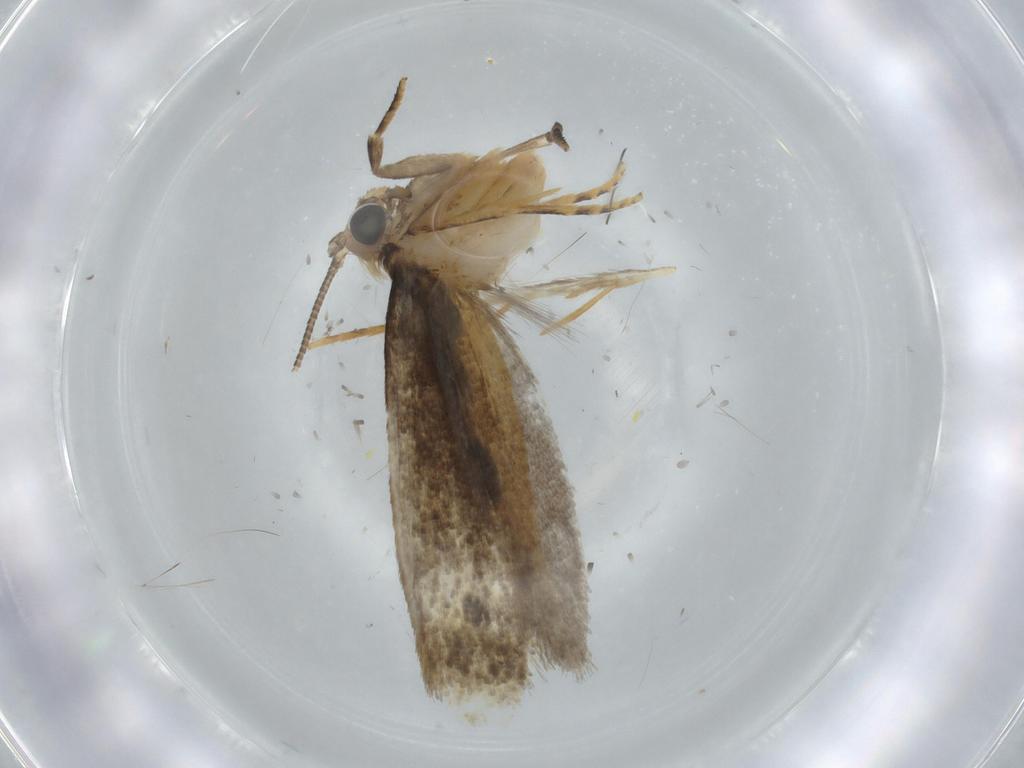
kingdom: Animalia
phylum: Arthropoda
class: Insecta
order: Lepidoptera
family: Tineidae
